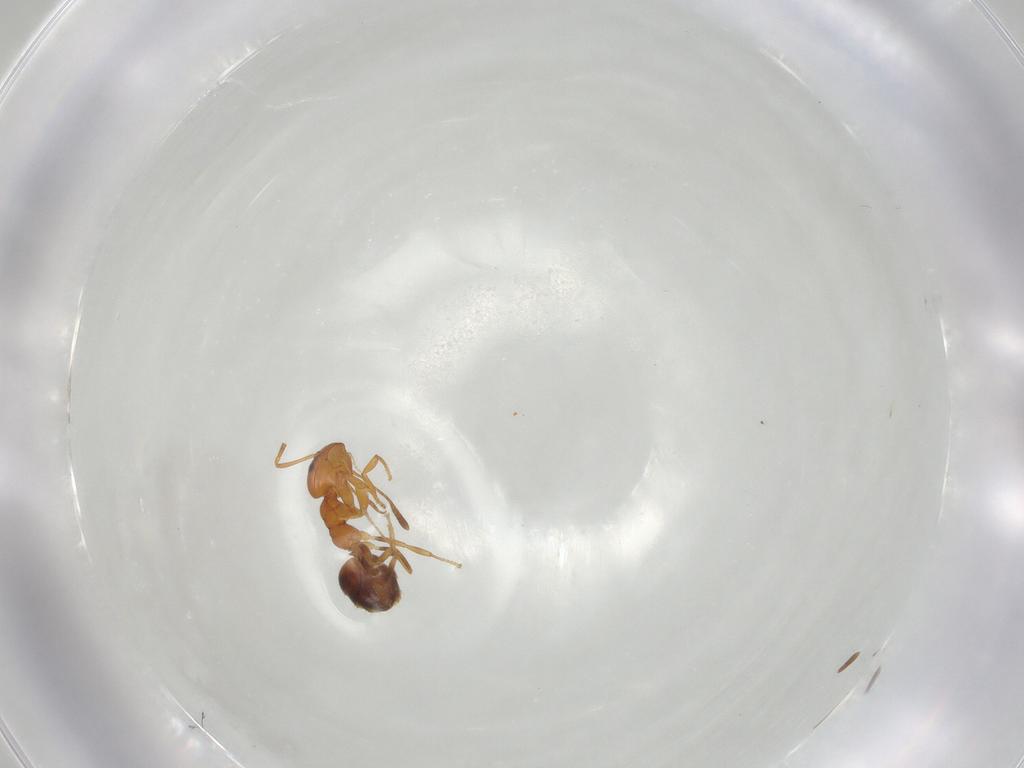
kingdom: Animalia
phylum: Arthropoda
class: Insecta
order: Hymenoptera
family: Formicidae
